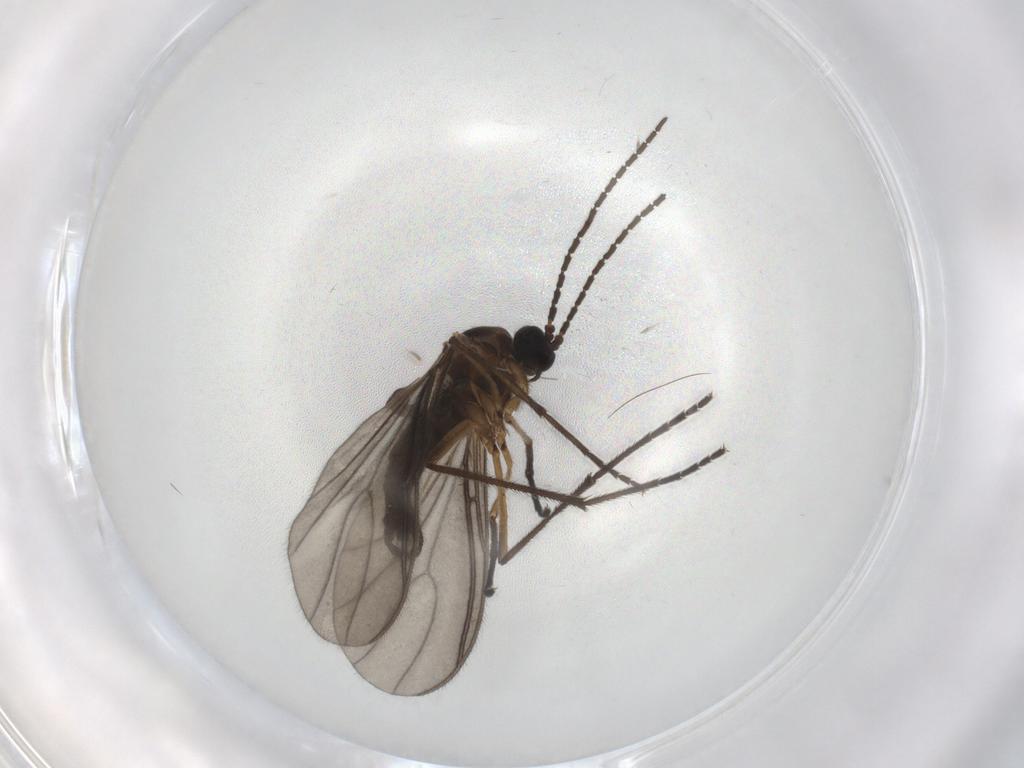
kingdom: Animalia
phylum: Arthropoda
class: Insecta
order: Diptera
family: Sciaridae
